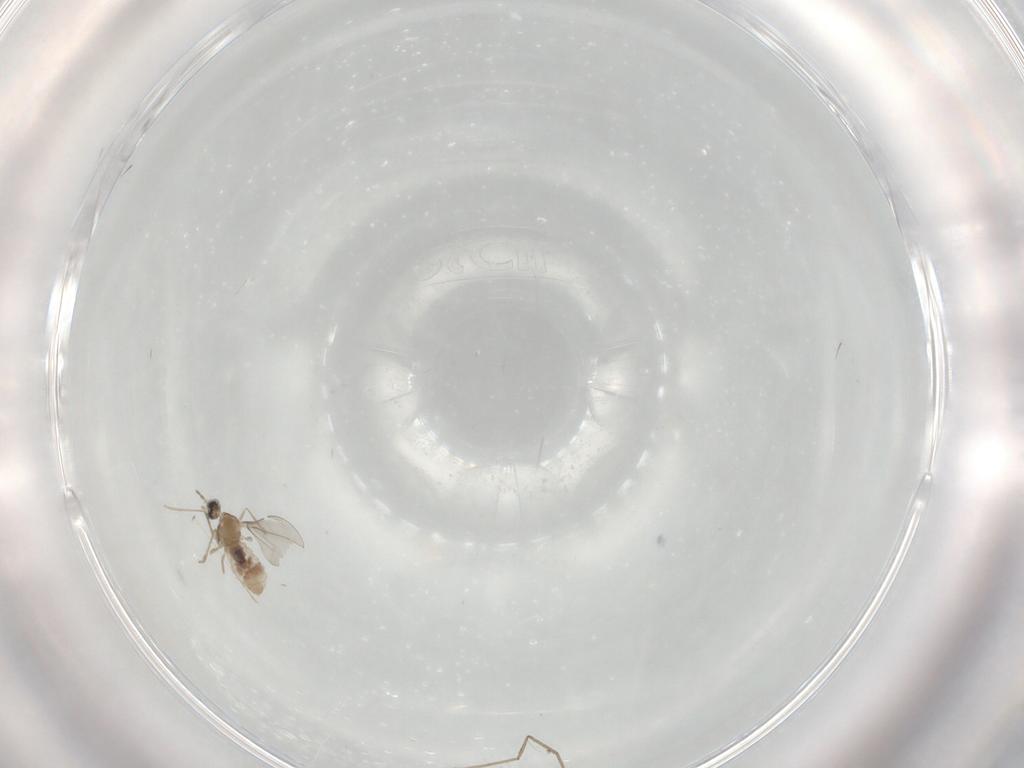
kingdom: Animalia
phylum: Arthropoda
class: Insecta
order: Diptera
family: Limoniidae
